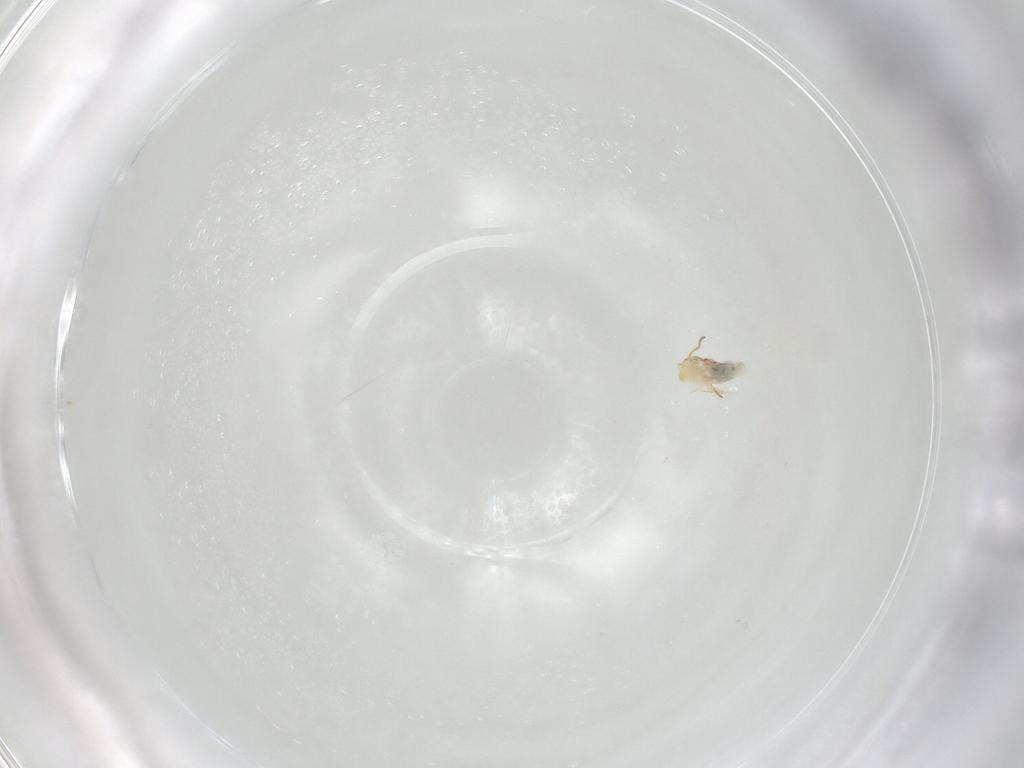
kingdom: Animalia
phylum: Arthropoda
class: Collembola
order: Symphypleona
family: Bourletiellidae
